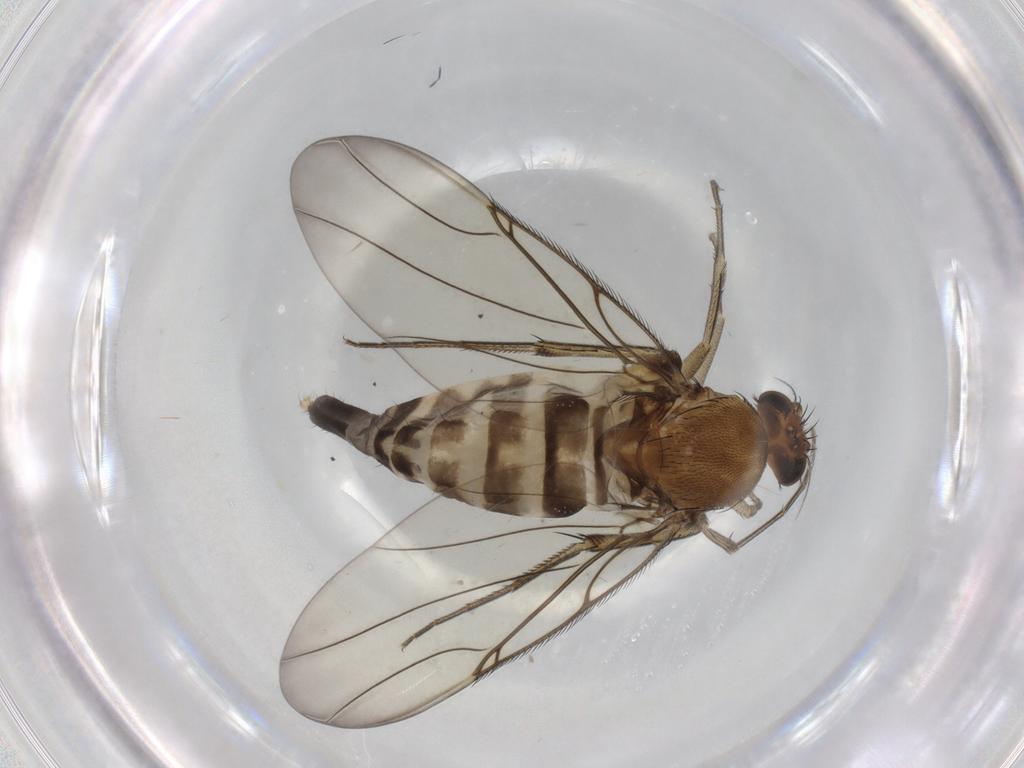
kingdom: Animalia
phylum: Arthropoda
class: Insecta
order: Diptera
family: Phoridae
